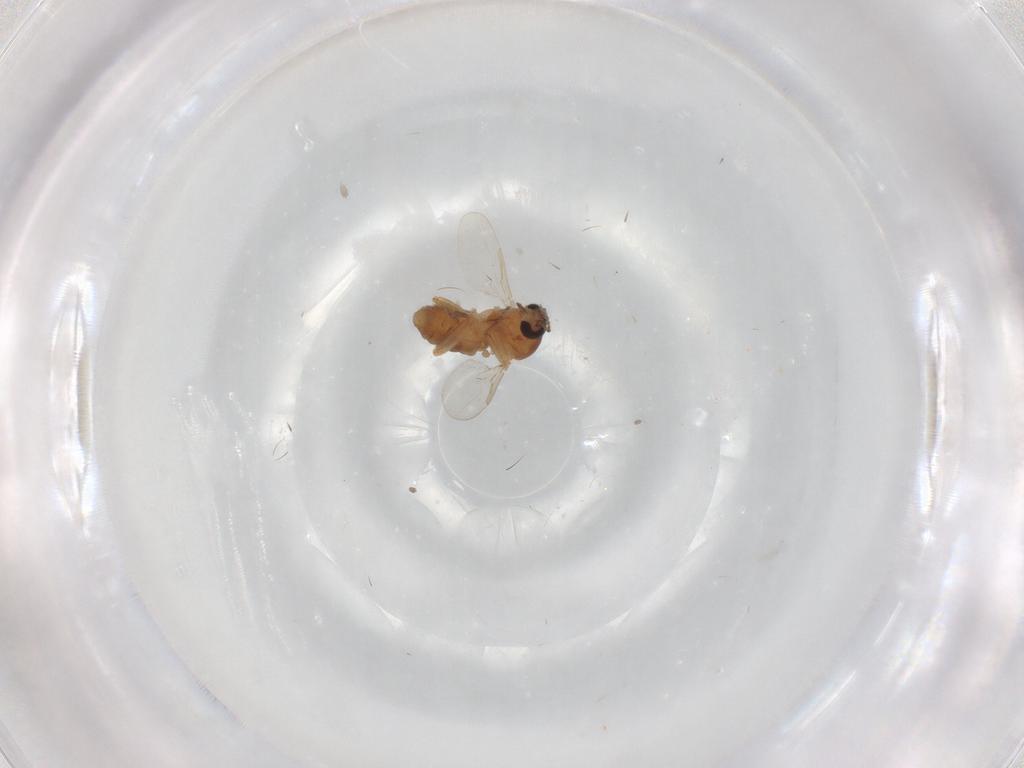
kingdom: Animalia
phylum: Arthropoda
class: Insecta
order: Diptera
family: Ceratopogonidae
